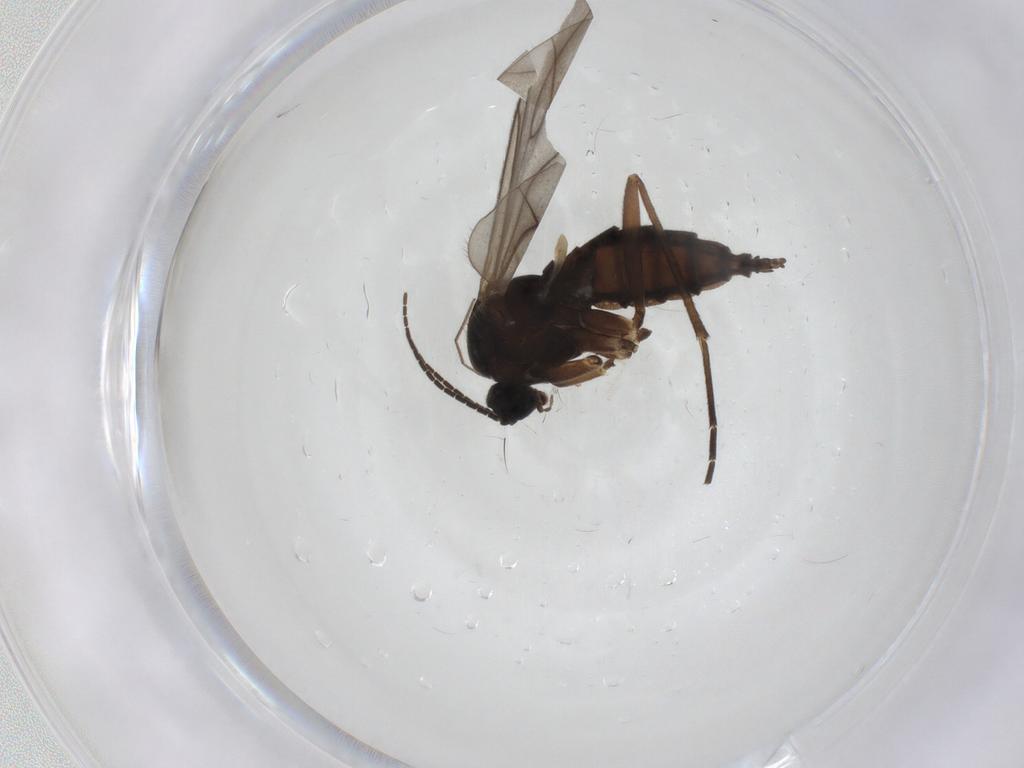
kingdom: Animalia
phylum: Arthropoda
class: Insecta
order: Diptera
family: Sciaridae
